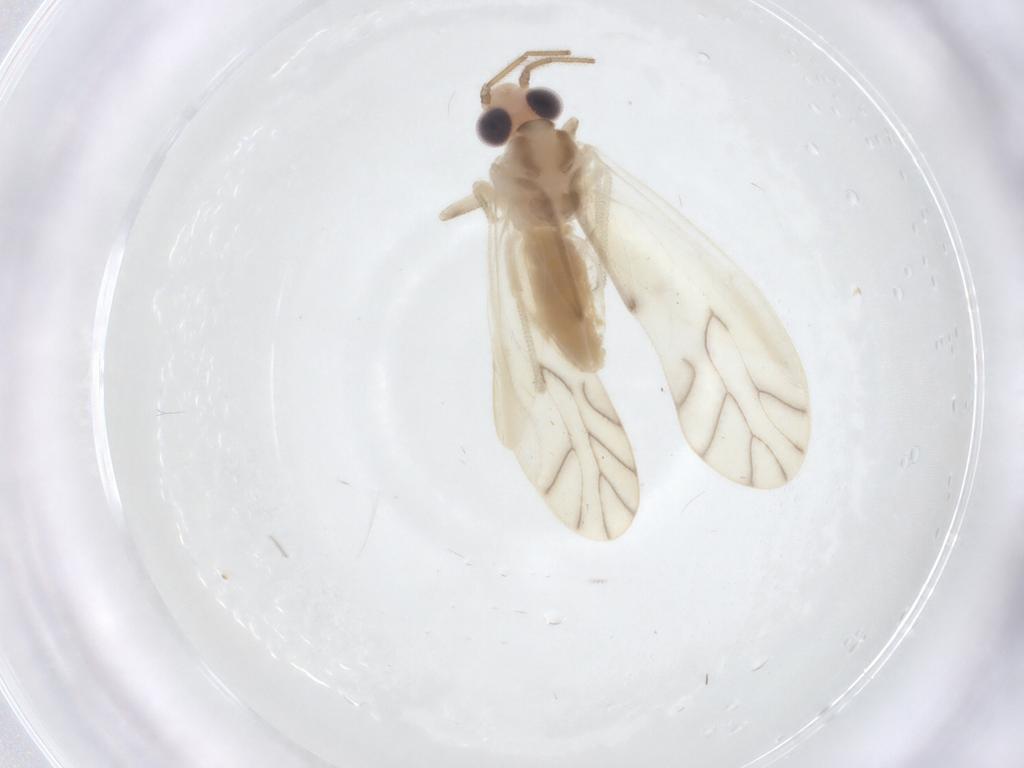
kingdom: Animalia
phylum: Arthropoda
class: Insecta
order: Psocodea
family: Caeciliusidae
